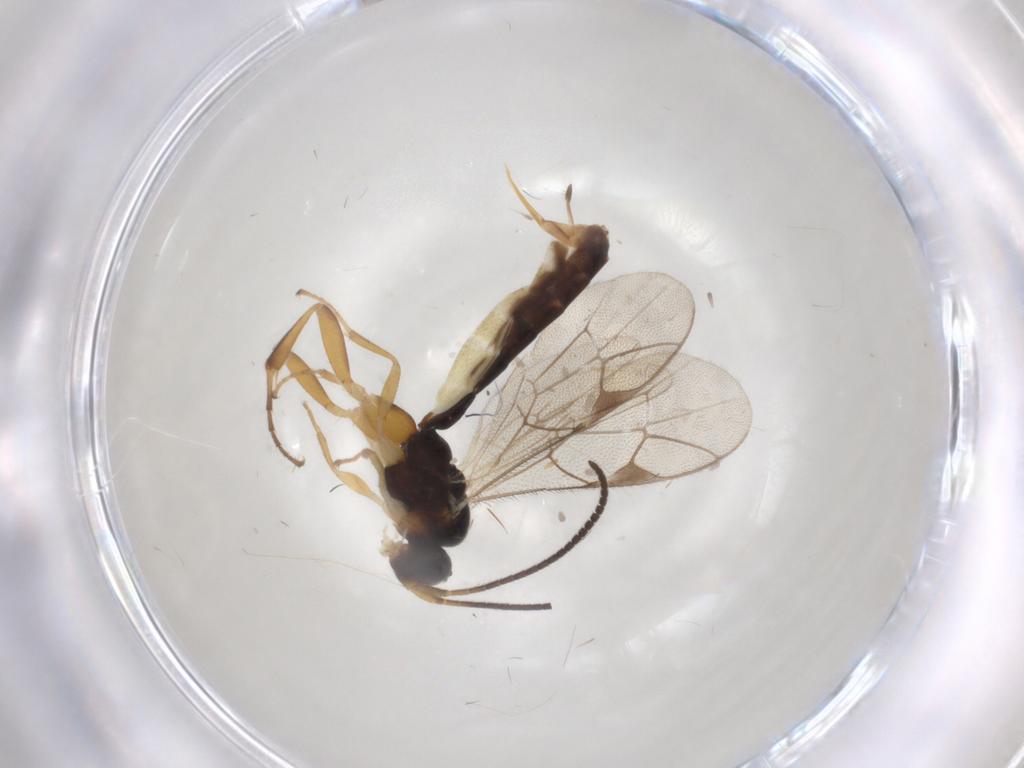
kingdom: Animalia
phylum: Arthropoda
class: Insecta
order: Hymenoptera
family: Ichneumonidae
